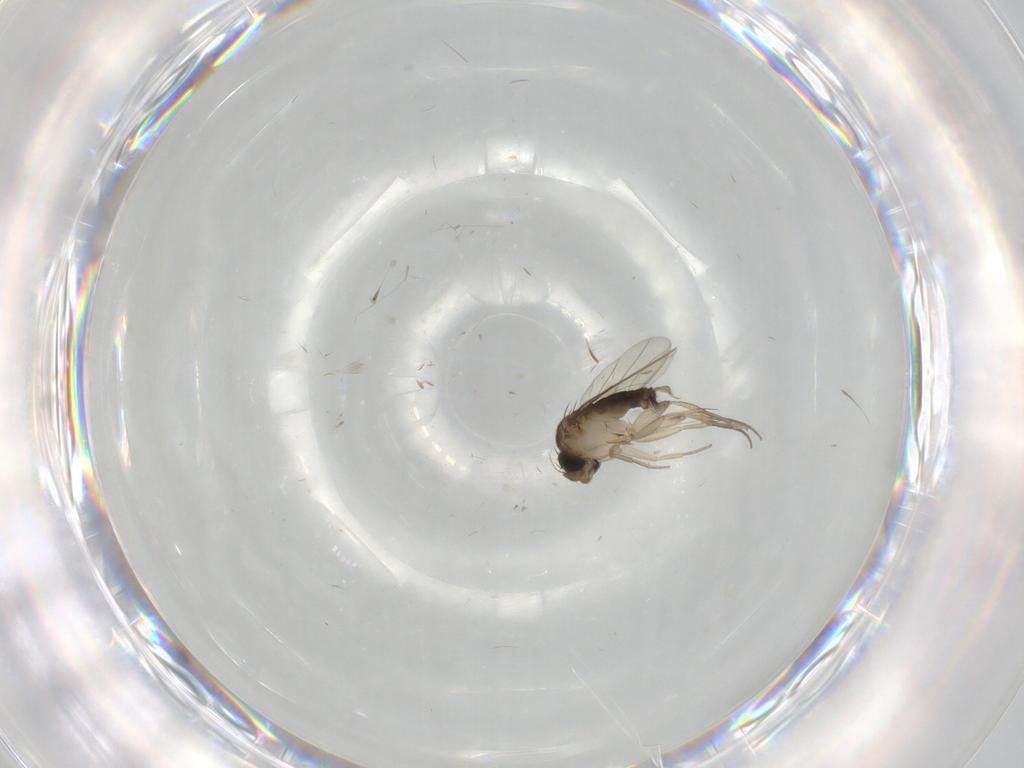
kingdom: Animalia
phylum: Arthropoda
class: Insecta
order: Diptera
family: Ceratopogonidae
